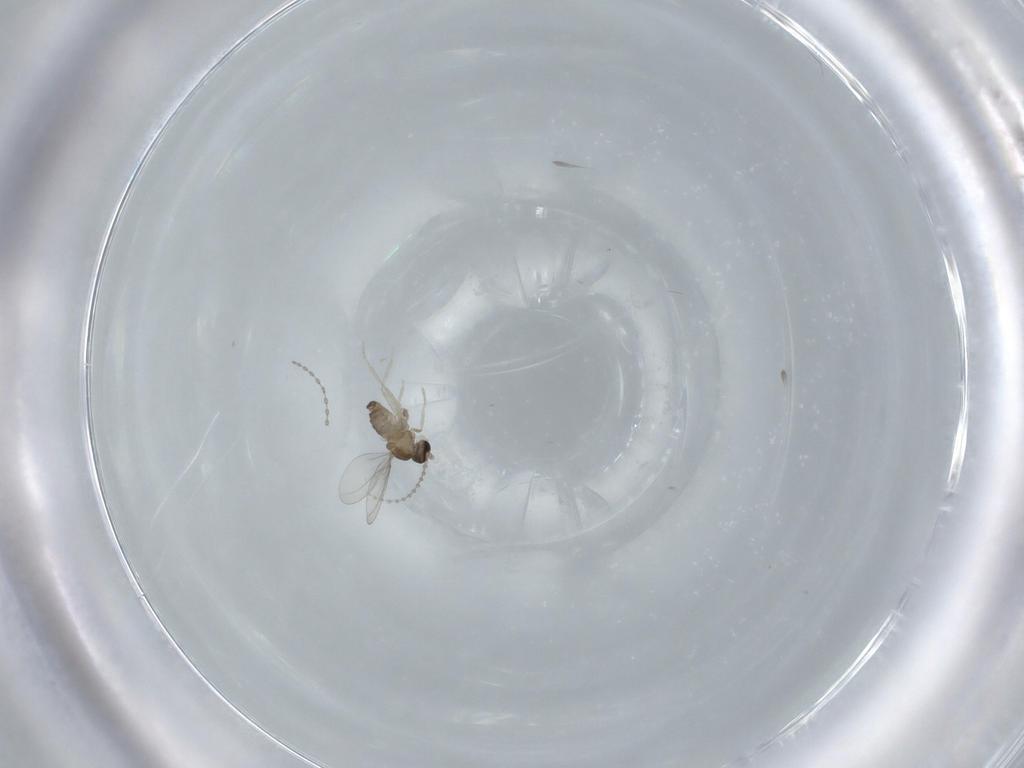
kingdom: Animalia
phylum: Arthropoda
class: Insecta
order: Diptera
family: Cecidomyiidae
